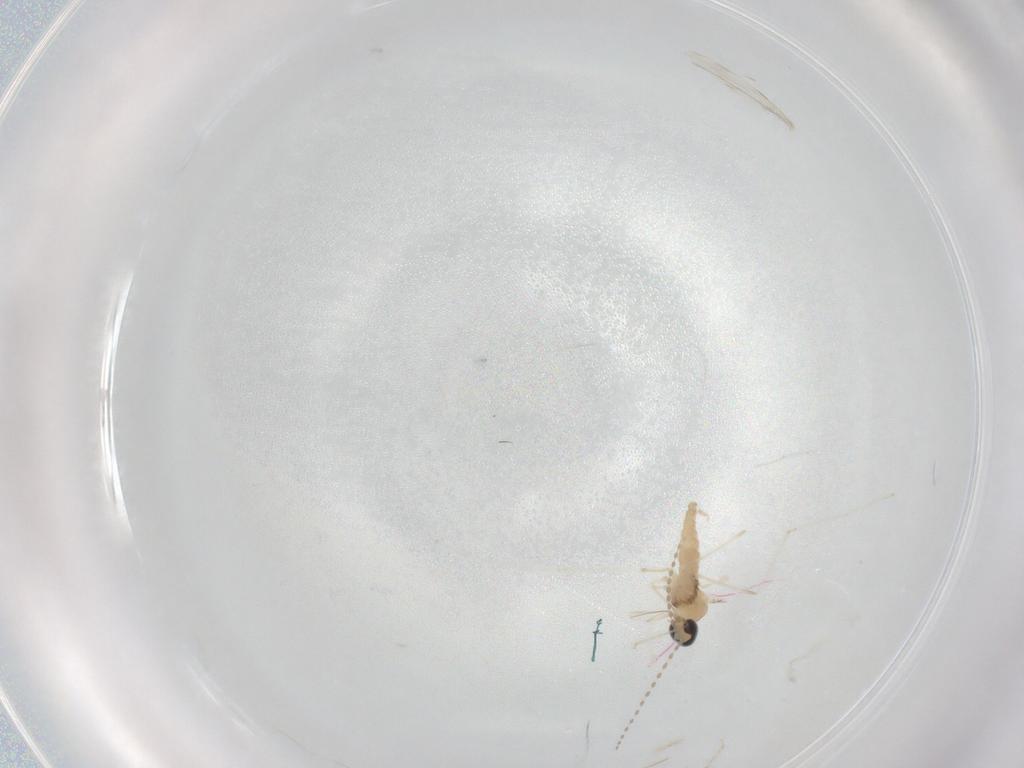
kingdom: Animalia
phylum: Arthropoda
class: Insecta
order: Diptera
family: Cecidomyiidae
